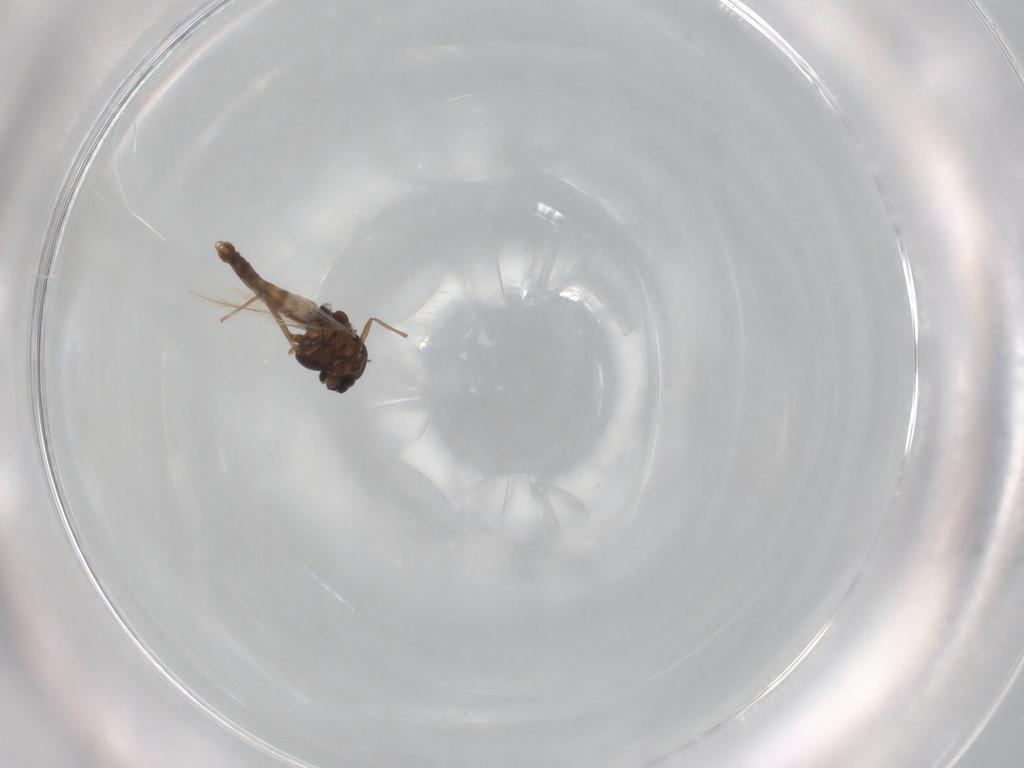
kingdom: Animalia
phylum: Arthropoda
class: Insecta
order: Diptera
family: Chironomidae
